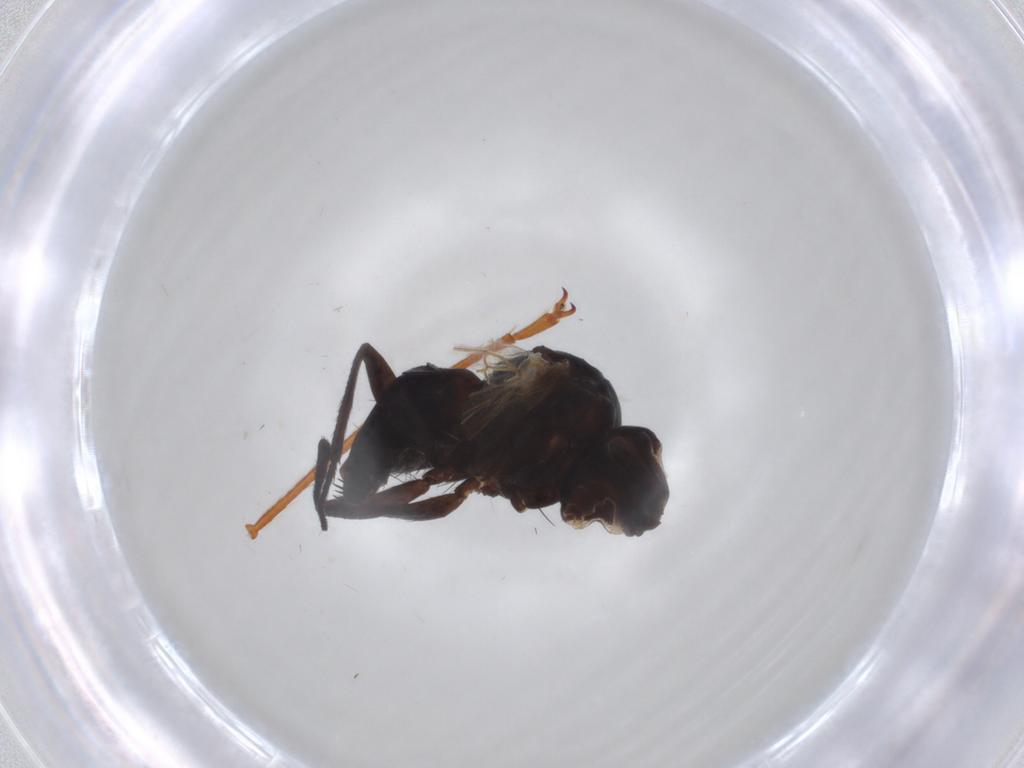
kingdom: Animalia
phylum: Arthropoda
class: Insecta
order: Diptera
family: Tachinidae
